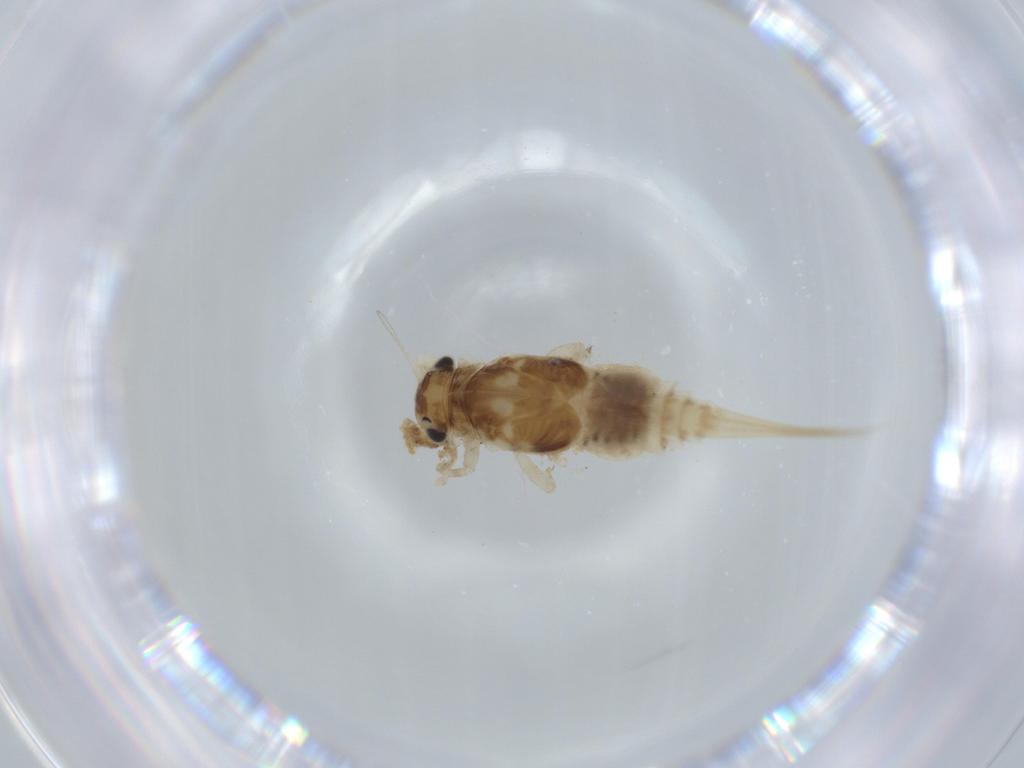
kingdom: Animalia
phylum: Arthropoda
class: Insecta
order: Ephemeroptera
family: Caenidae
